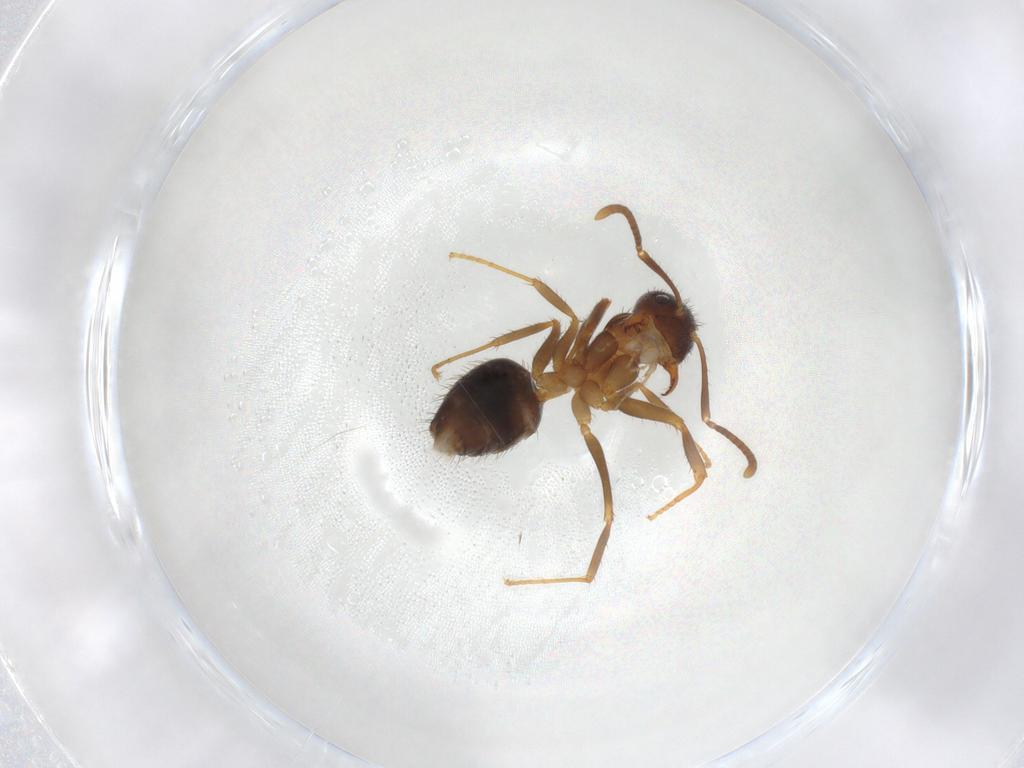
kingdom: Animalia
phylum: Arthropoda
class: Insecta
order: Hymenoptera
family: Formicidae
